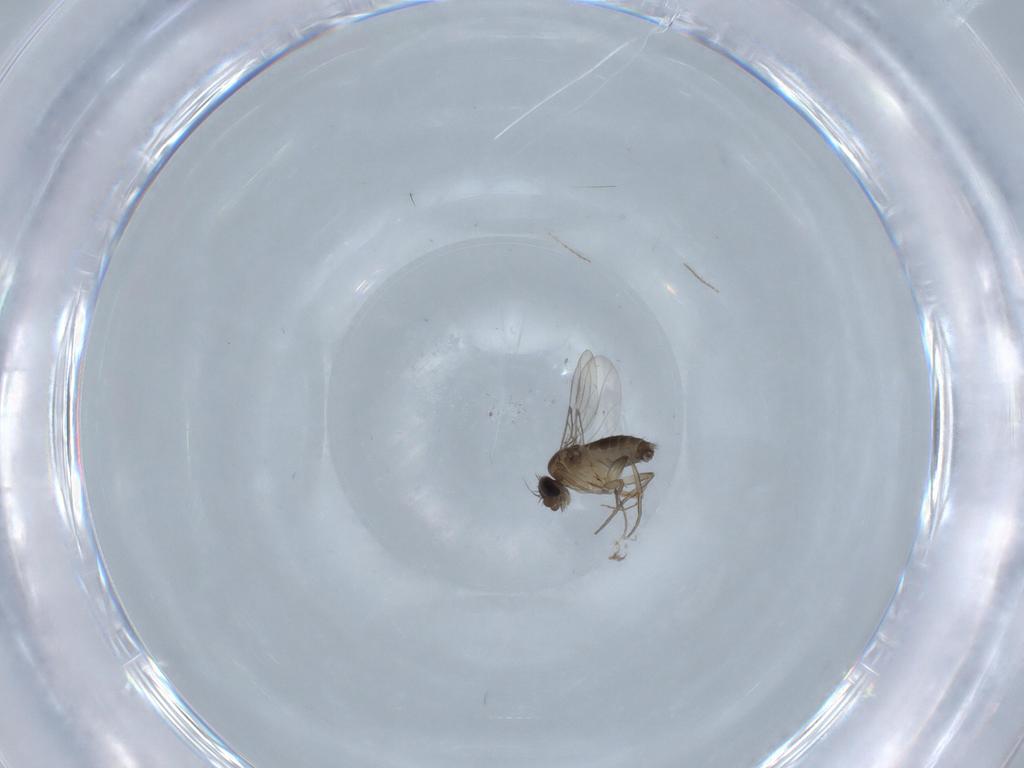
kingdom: Animalia
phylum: Arthropoda
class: Insecta
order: Diptera
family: Phoridae
